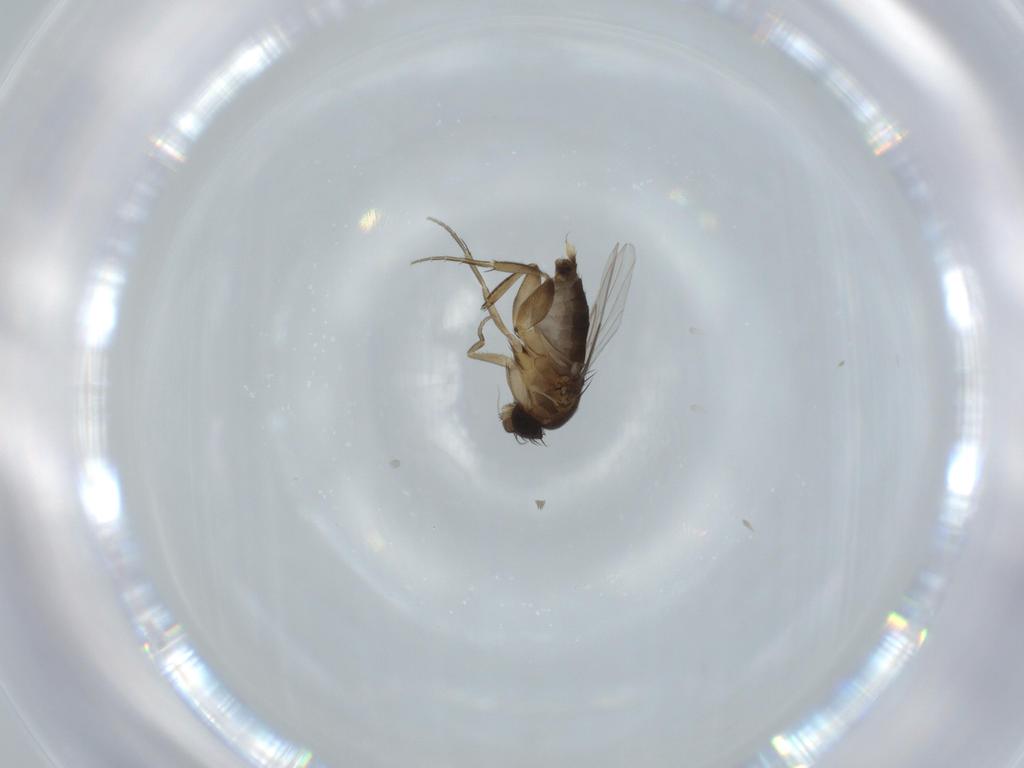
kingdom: Animalia
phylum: Arthropoda
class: Insecta
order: Diptera
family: Phoridae
